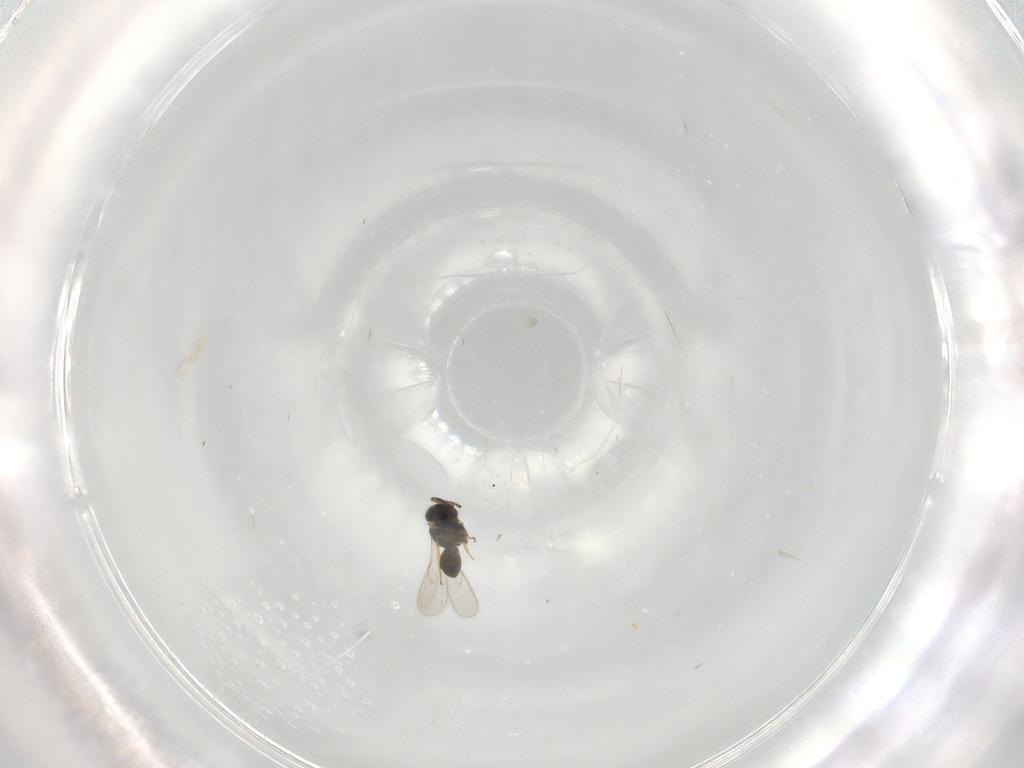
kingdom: Animalia
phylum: Arthropoda
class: Insecta
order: Hymenoptera
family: Scelionidae
